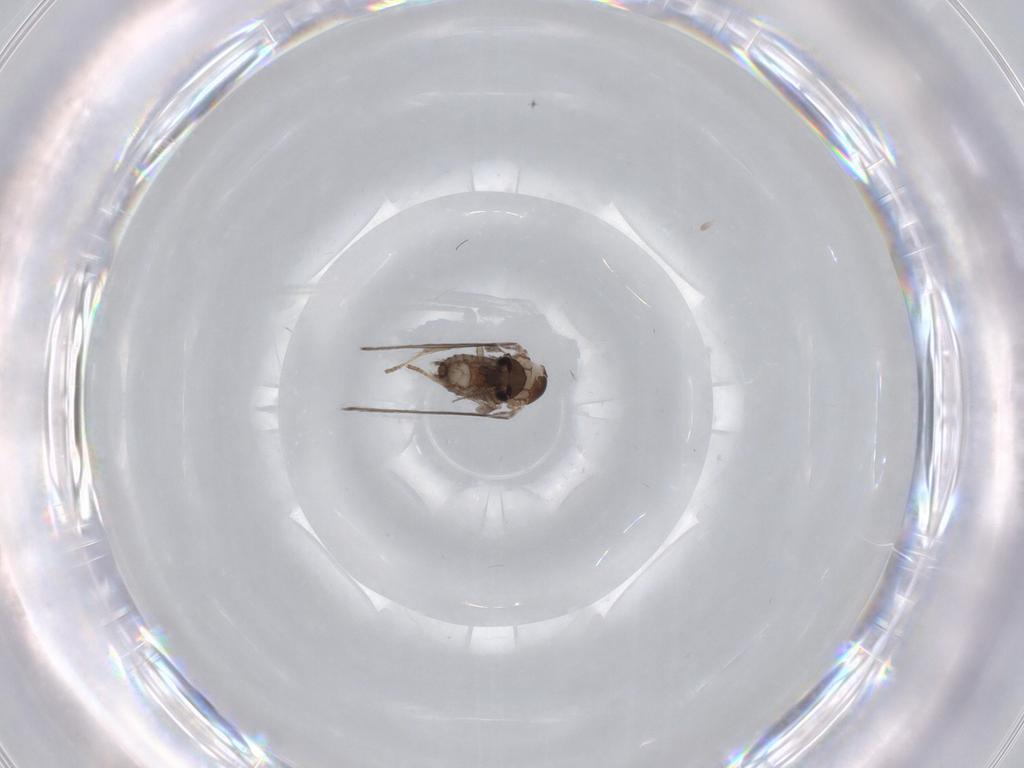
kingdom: Animalia
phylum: Arthropoda
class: Insecta
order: Diptera
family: Psychodidae
